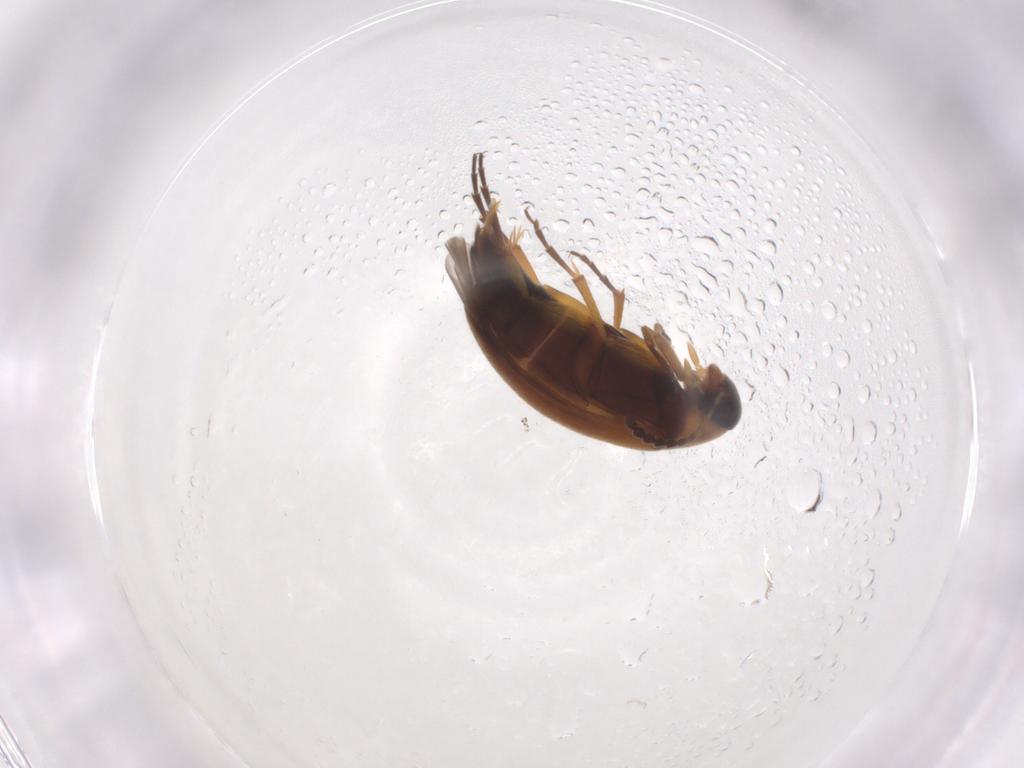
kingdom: Animalia
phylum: Arthropoda
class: Insecta
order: Coleoptera
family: Scraptiidae
